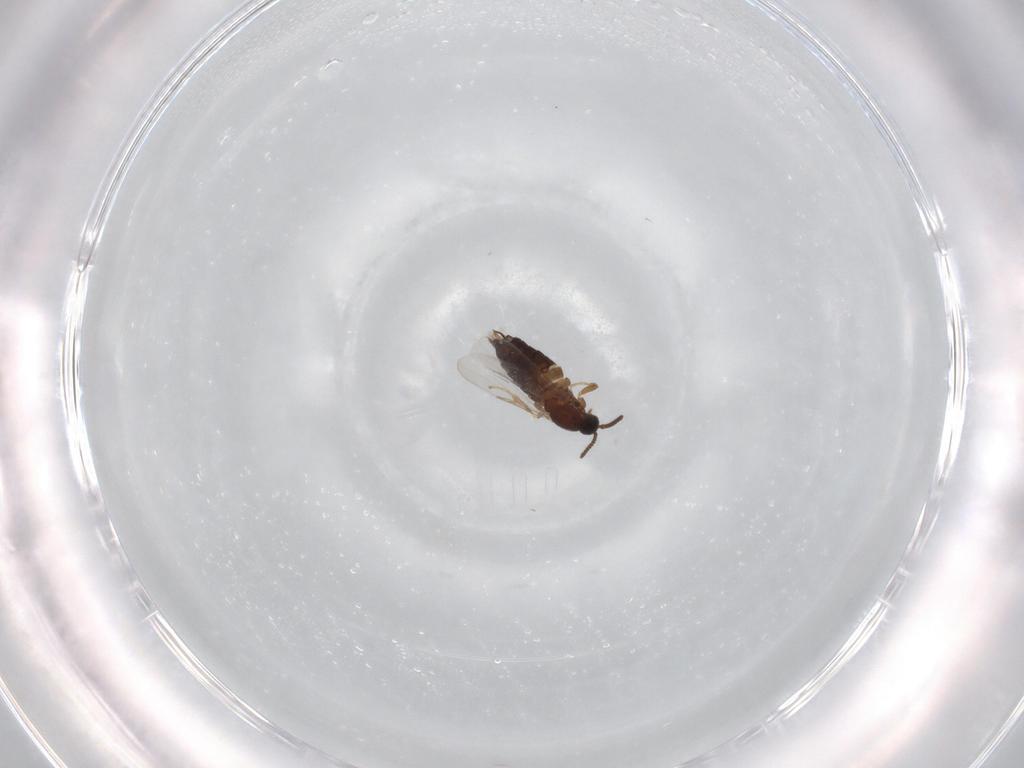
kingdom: Animalia
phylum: Arthropoda
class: Insecta
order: Diptera
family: Scatopsidae
